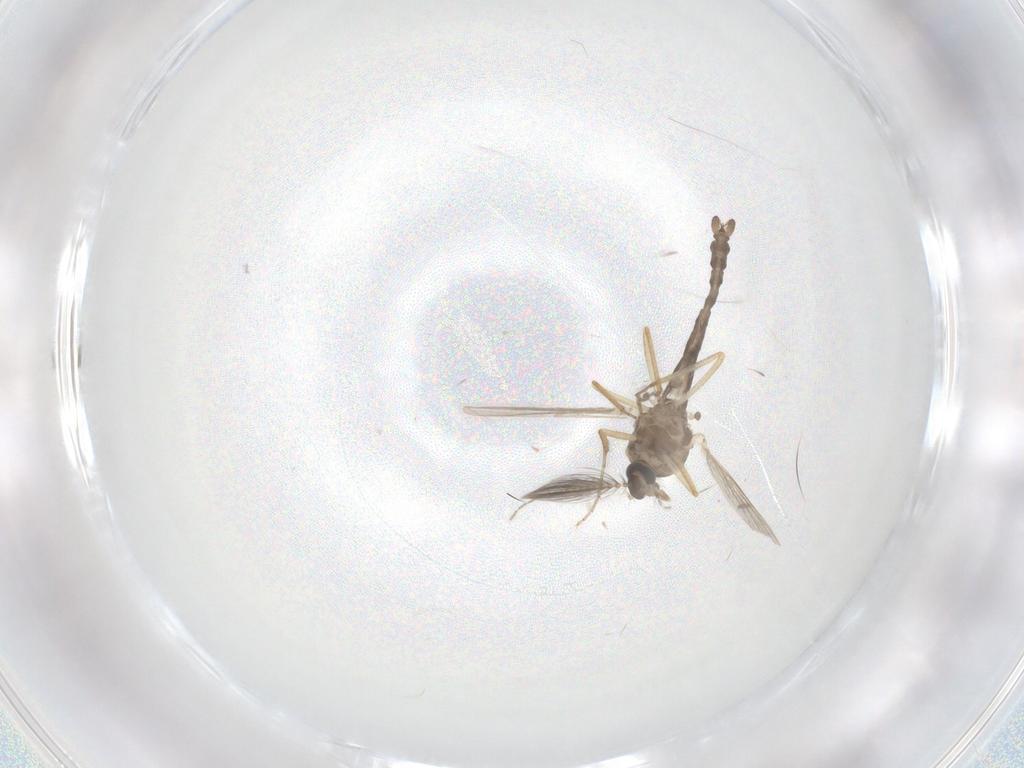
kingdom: Animalia
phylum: Arthropoda
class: Insecta
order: Diptera
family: Ceratopogonidae
